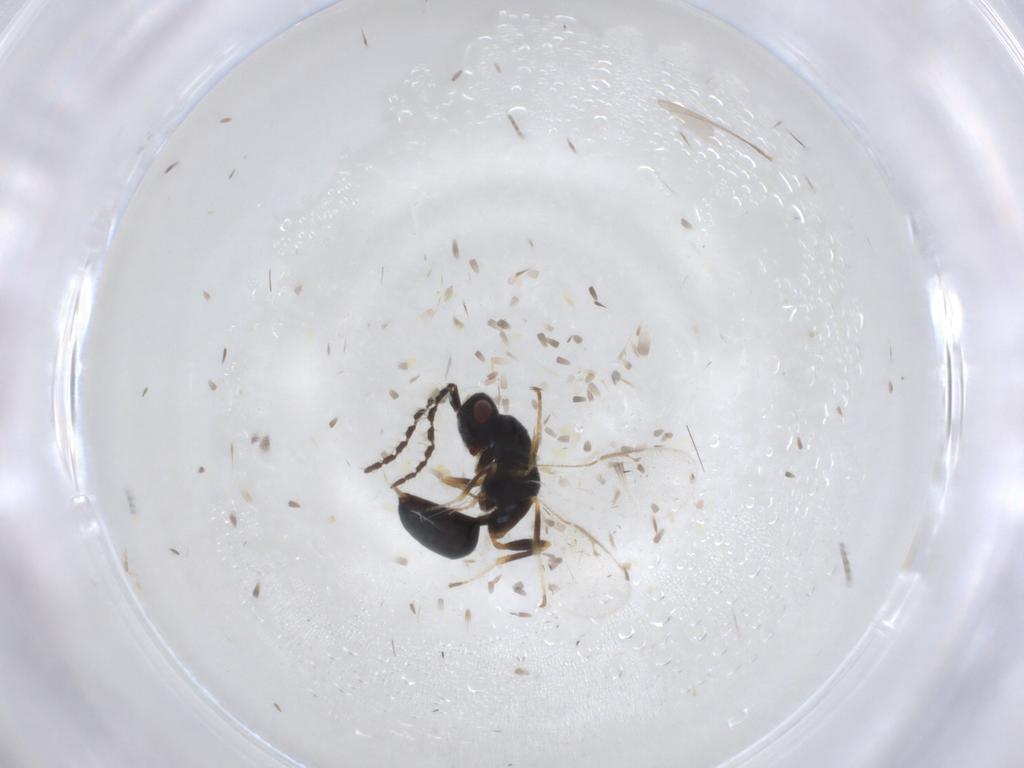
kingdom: Animalia
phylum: Arthropoda
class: Insecta
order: Hymenoptera
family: Eurytomidae
